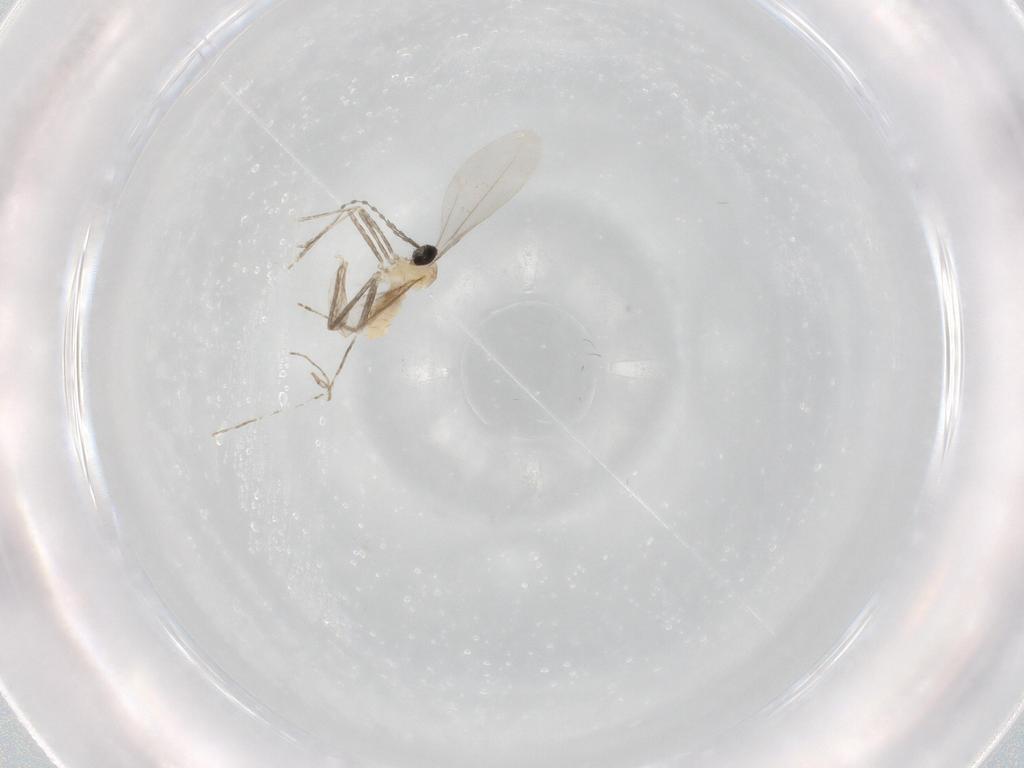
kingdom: Animalia
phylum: Arthropoda
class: Insecta
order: Diptera
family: Cecidomyiidae
